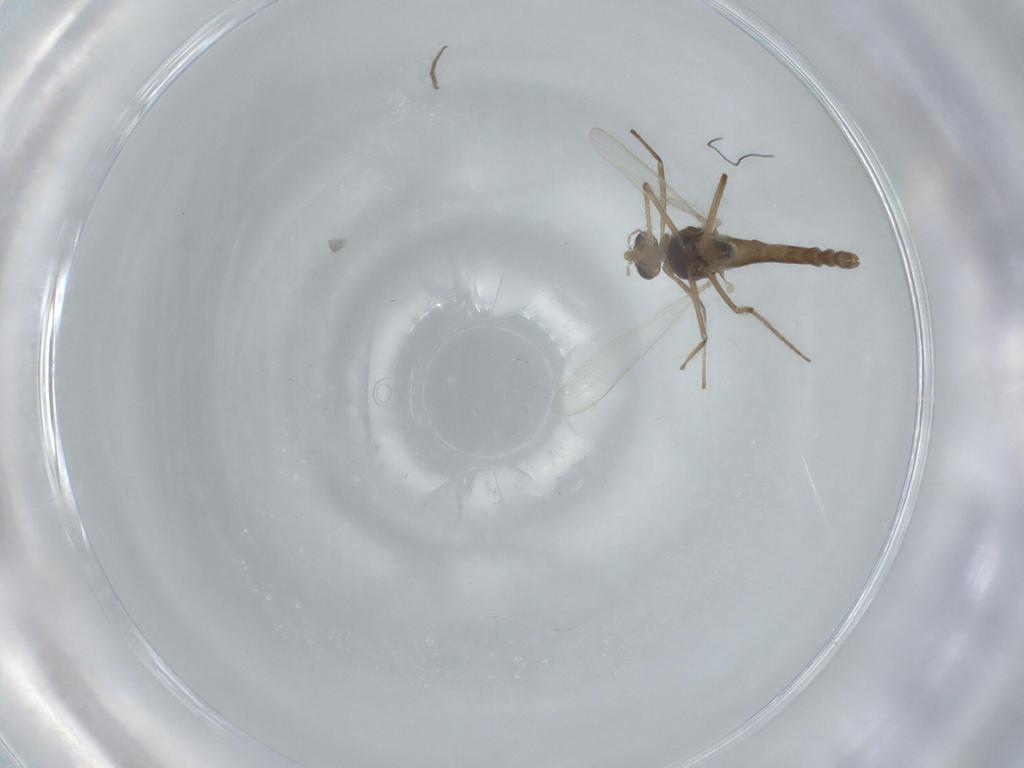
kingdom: Animalia
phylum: Arthropoda
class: Insecta
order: Diptera
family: Chironomidae
